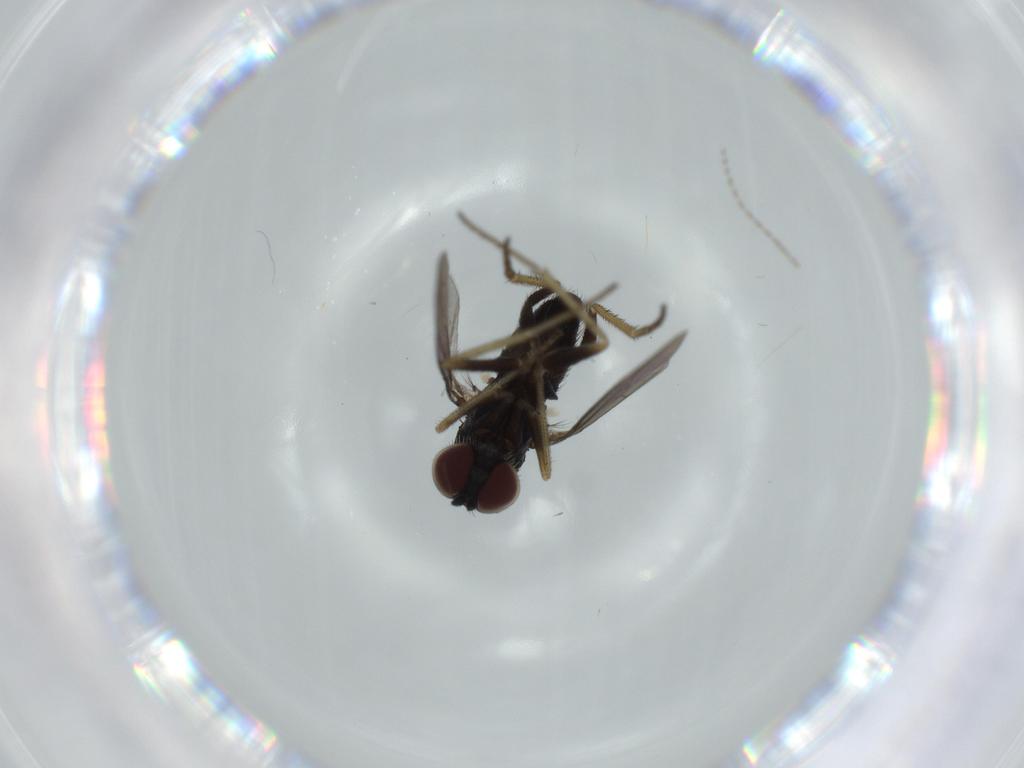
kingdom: Animalia
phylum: Arthropoda
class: Insecta
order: Diptera
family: Cecidomyiidae
